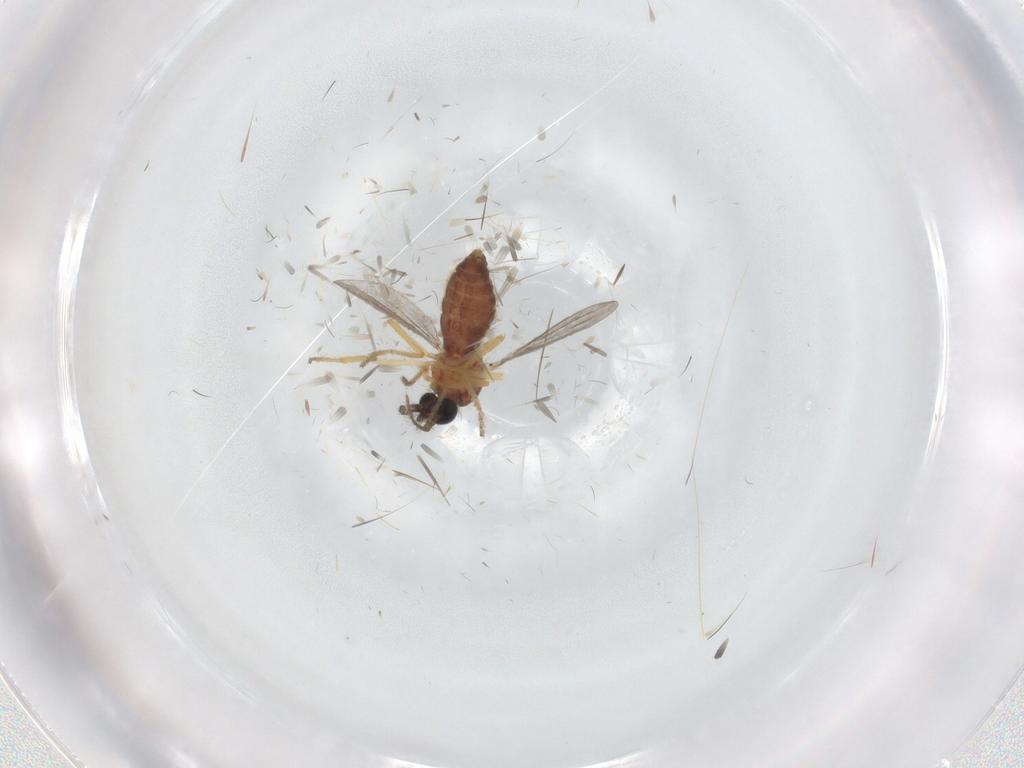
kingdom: Animalia
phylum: Arthropoda
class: Insecta
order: Diptera
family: Ceratopogonidae
